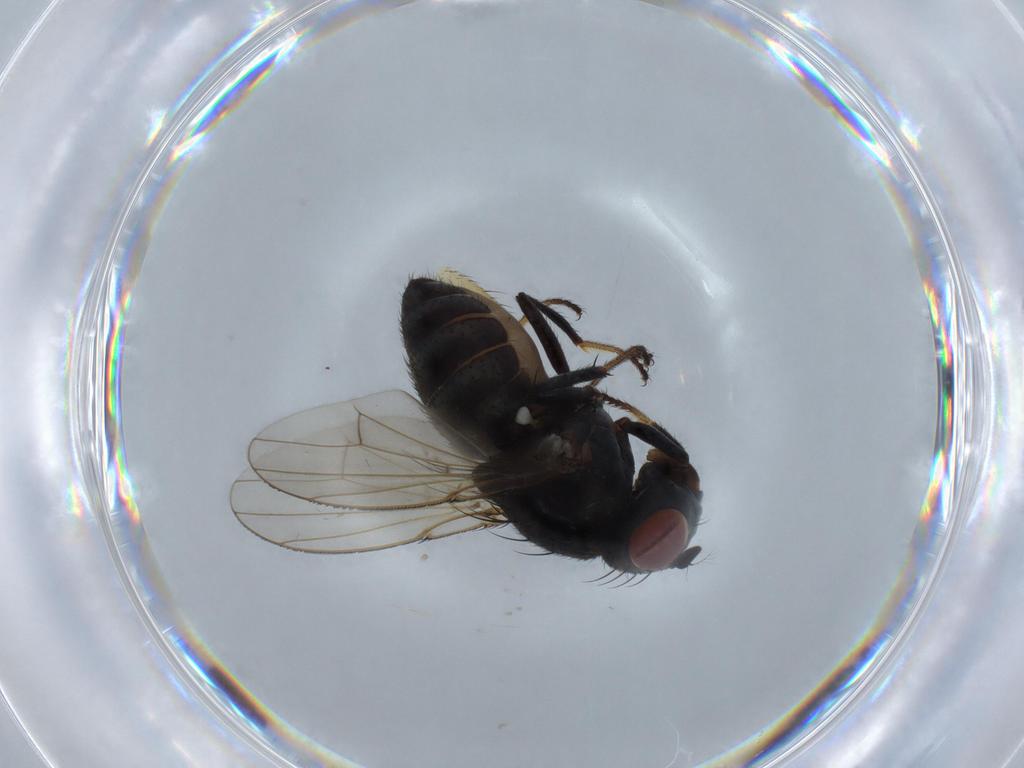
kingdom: Animalia
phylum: Arthropoda
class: Insecta
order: Diptera
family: Ephydridae
